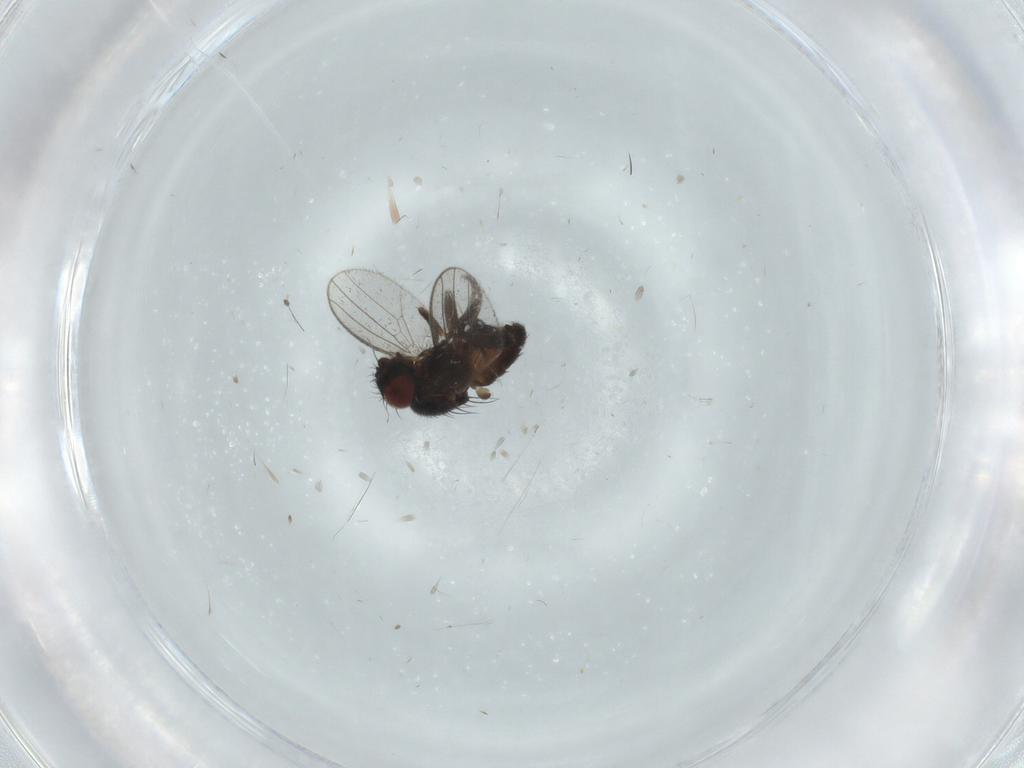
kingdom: Animalia
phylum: Arthropoda
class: Insecta
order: Diptera
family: Milichiidae
